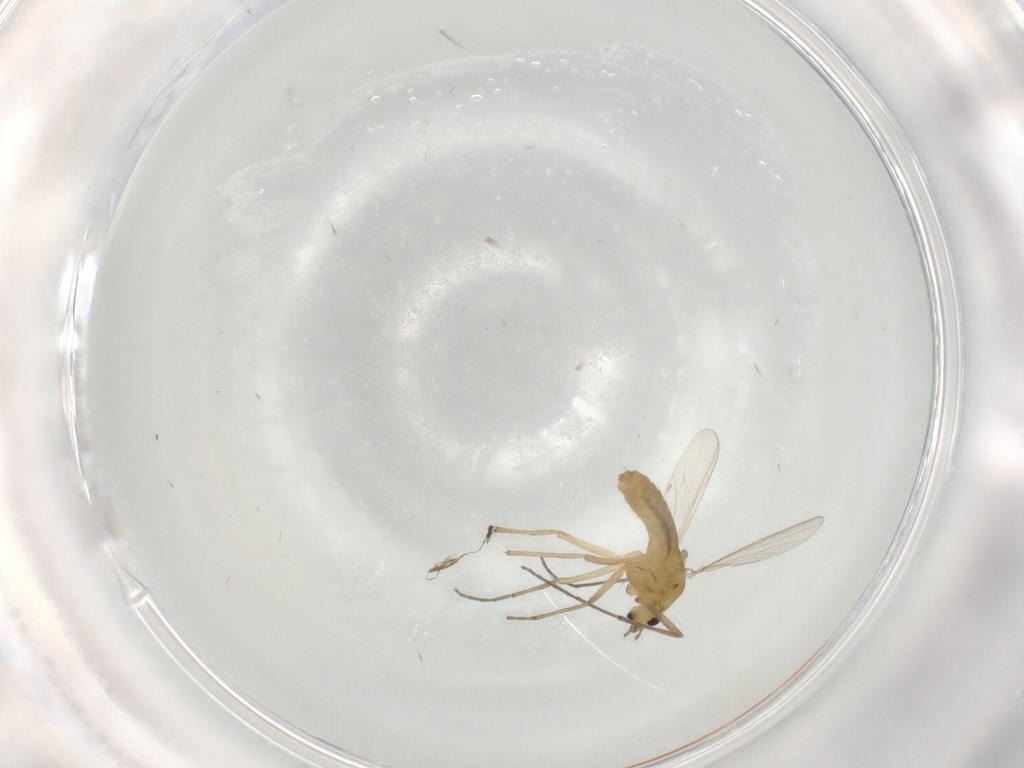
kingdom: Animalia
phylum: Arthropoda
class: Insecta
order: Diptera
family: Chironomidae
